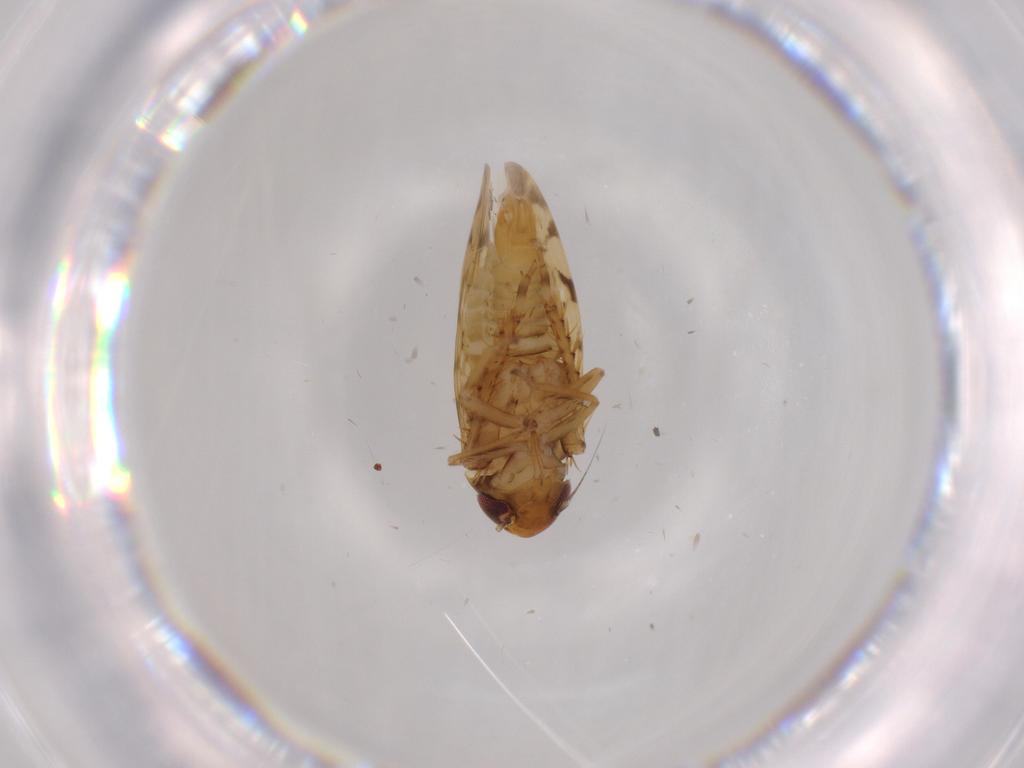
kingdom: Animalia
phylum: Arthropoda
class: Insecta
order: Hemiptera
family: Cicadellidae
